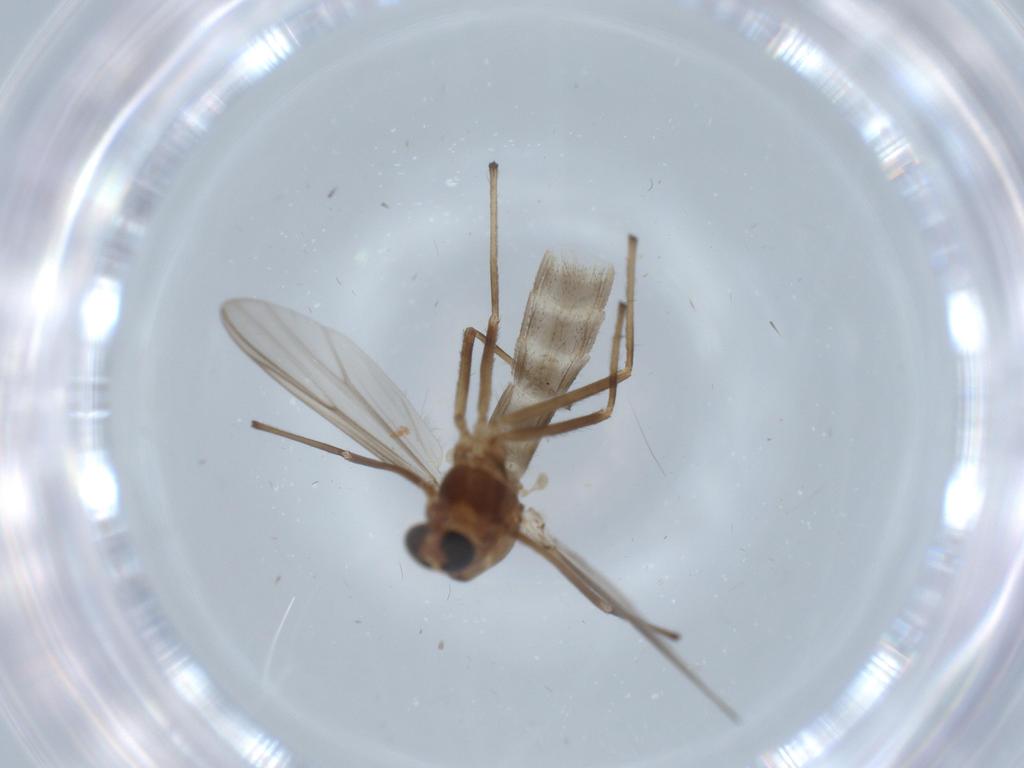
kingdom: Animalia
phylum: Arthropoda
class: Insecta
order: Diptera
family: Chironomidae
